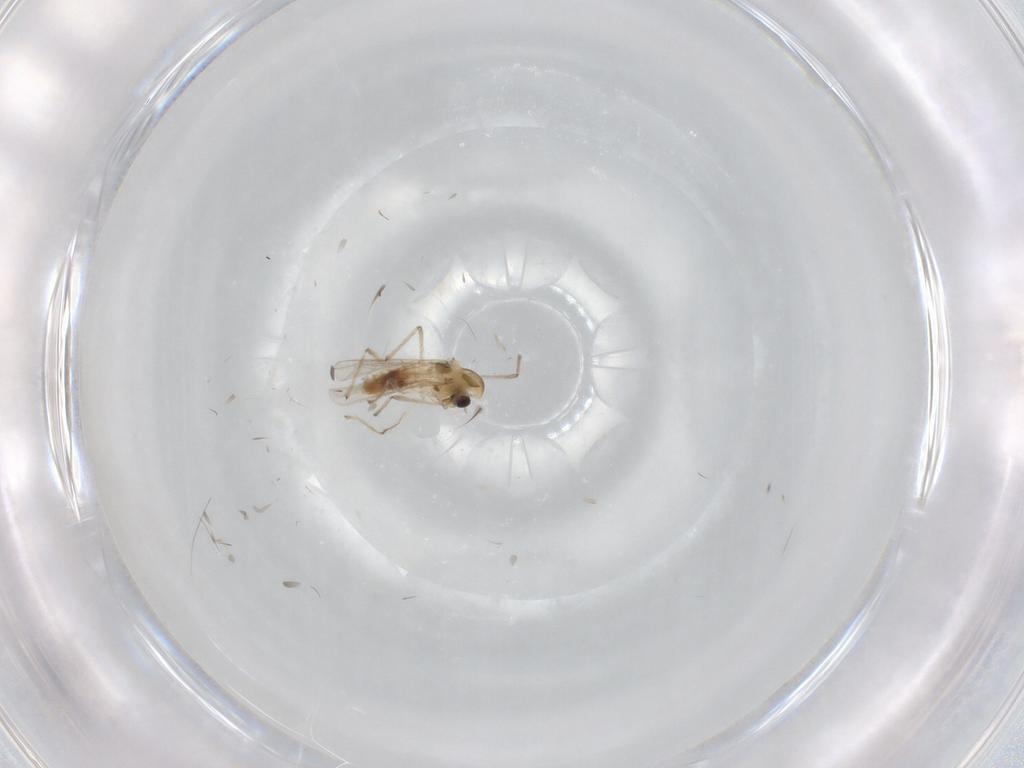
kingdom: Animalia
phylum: Arthropoda
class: Insecta
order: Diptera
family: Chironomidae
